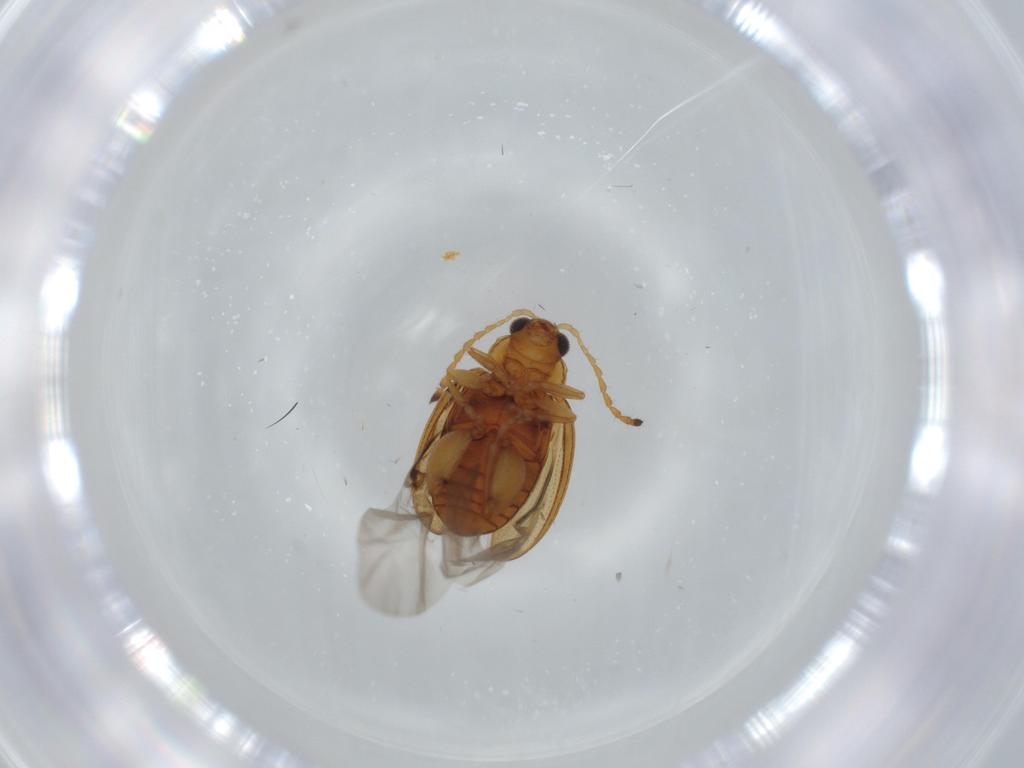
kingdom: Animalia
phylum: Arthropoda
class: Insecta
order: Coleoptera
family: Chrysomelidae
